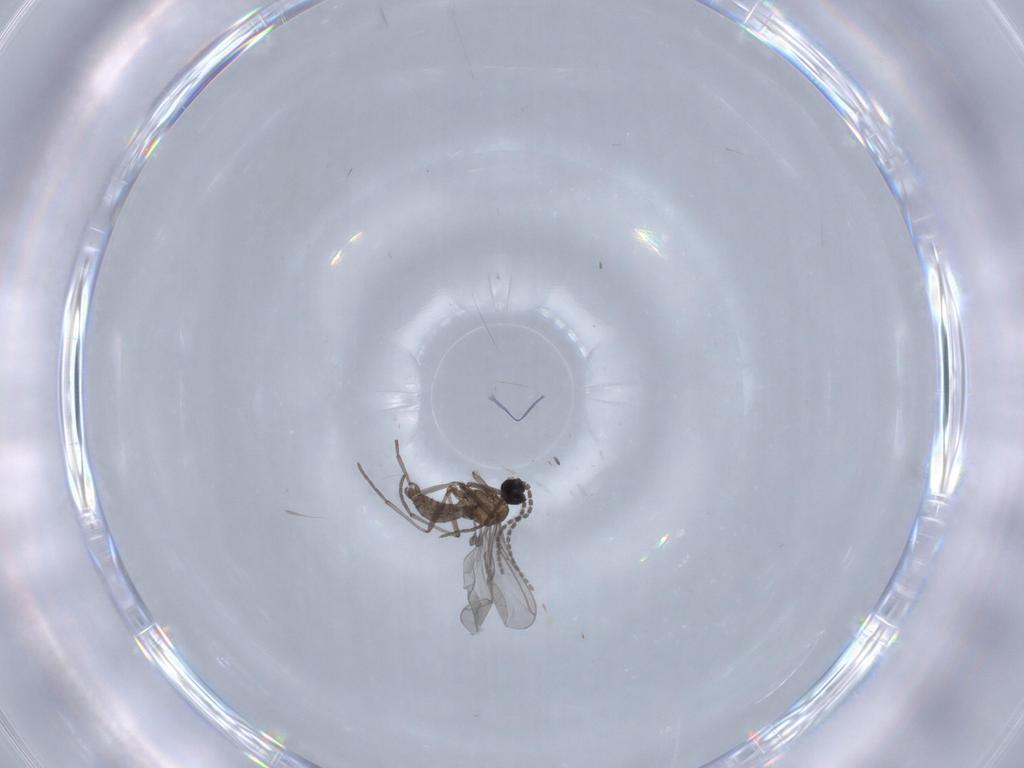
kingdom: Animalia
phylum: Arthropoda
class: Insecta
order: Diptera
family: Sciaridae
